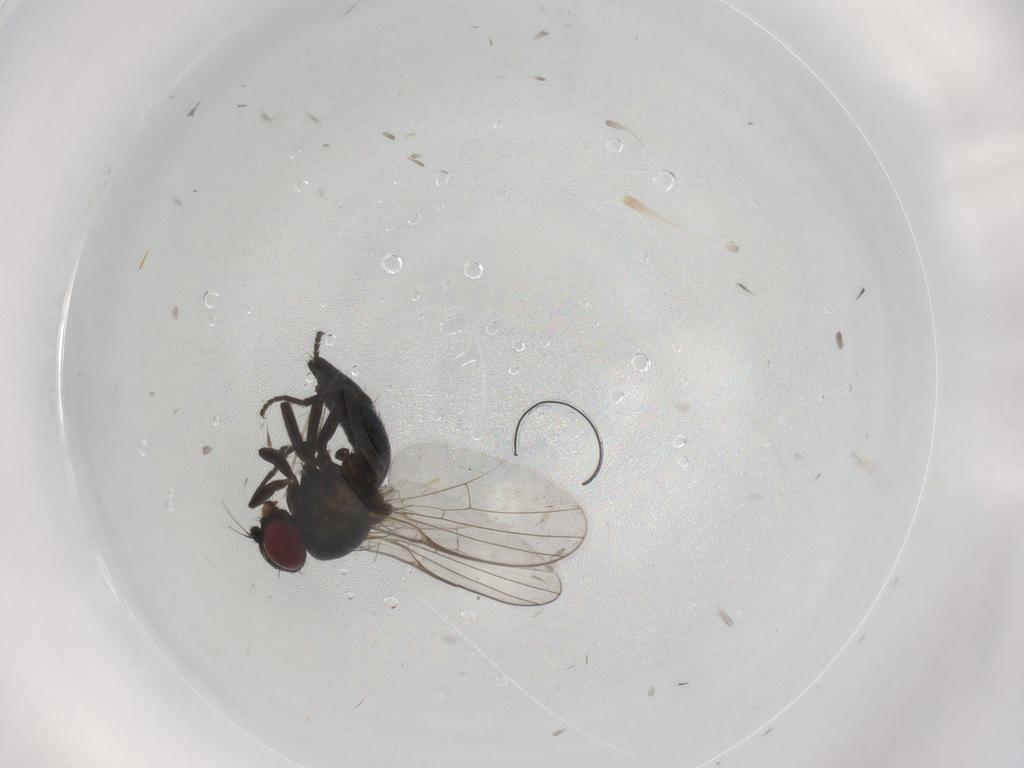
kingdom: Animalia
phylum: Arthropoda
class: Insecta
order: Diptera
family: Agromyzidae
